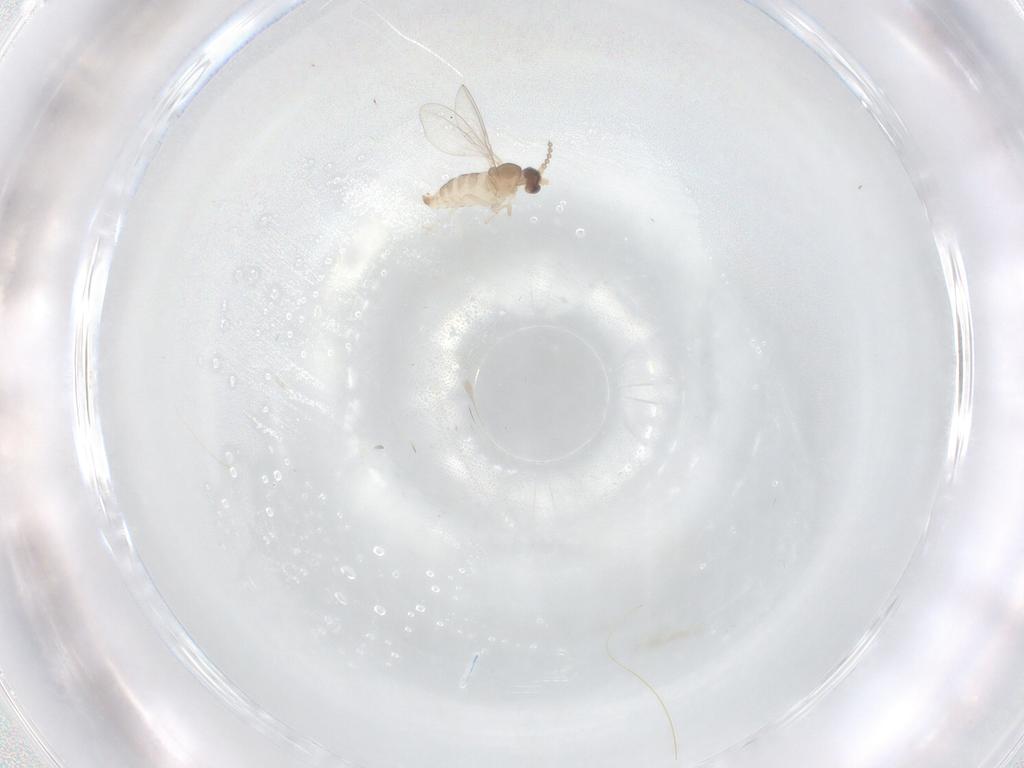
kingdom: Animalia
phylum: Arthropoda
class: Insecta
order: Diptera
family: Cecidomyiidae
